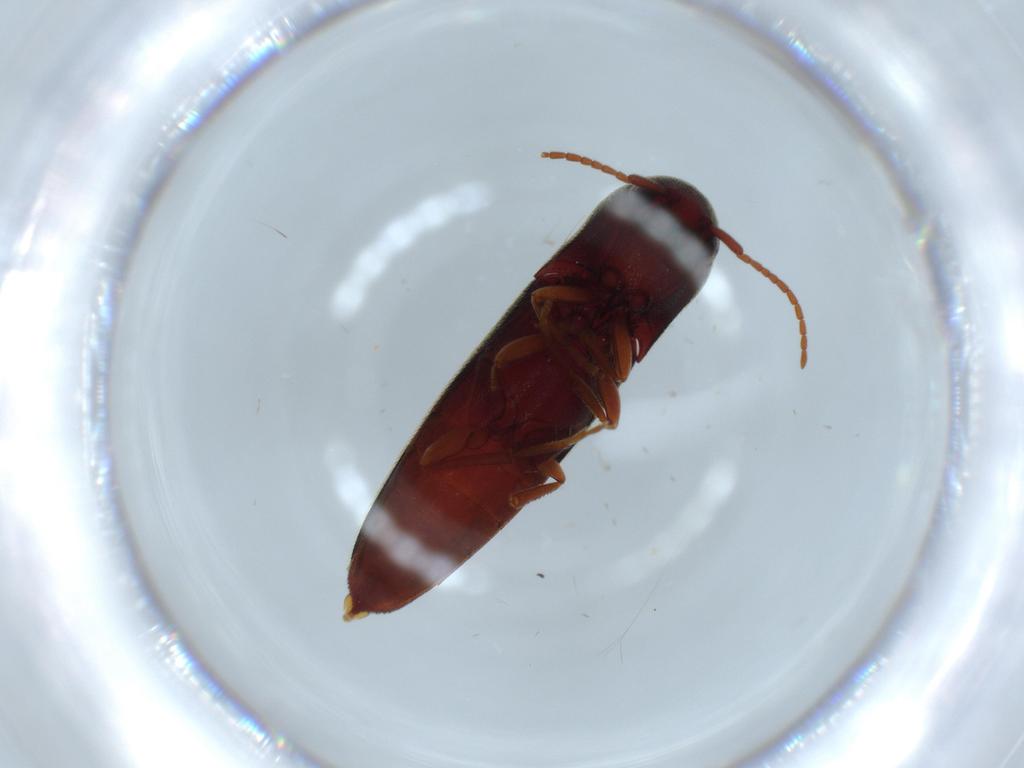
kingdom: Animalia
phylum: Arthropoda
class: Insecta
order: Coleoptera
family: Eucnemidae
